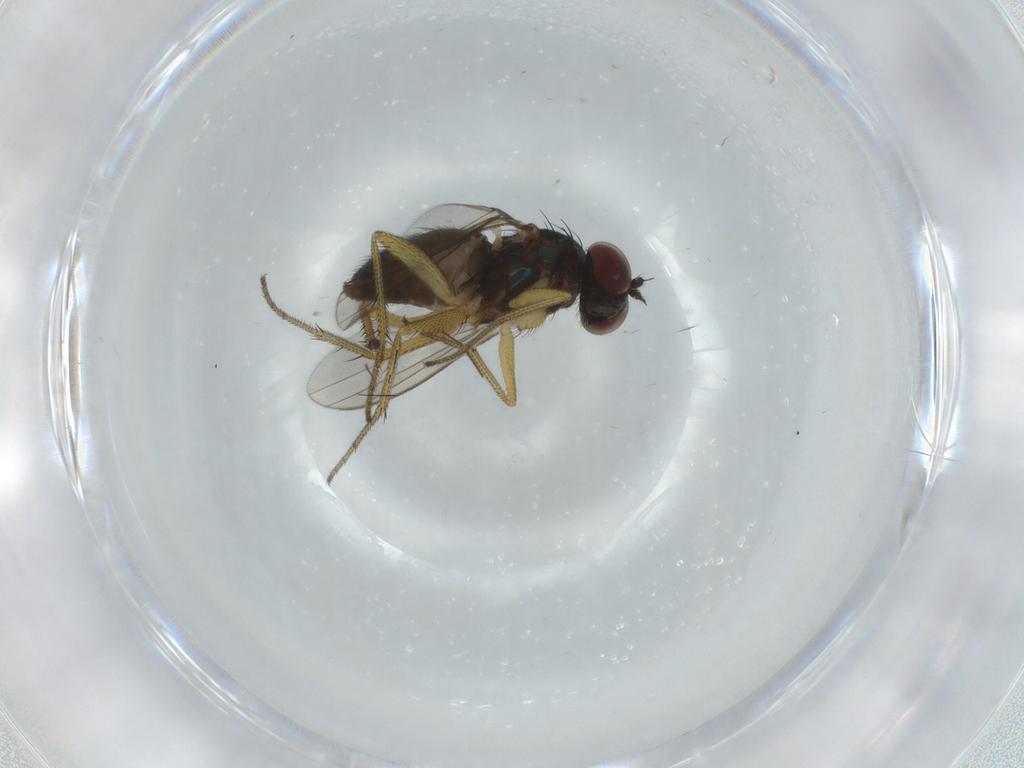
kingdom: Animalia
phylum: Arthropoda
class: Insecta
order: Diptera
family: Dolichopodidae
